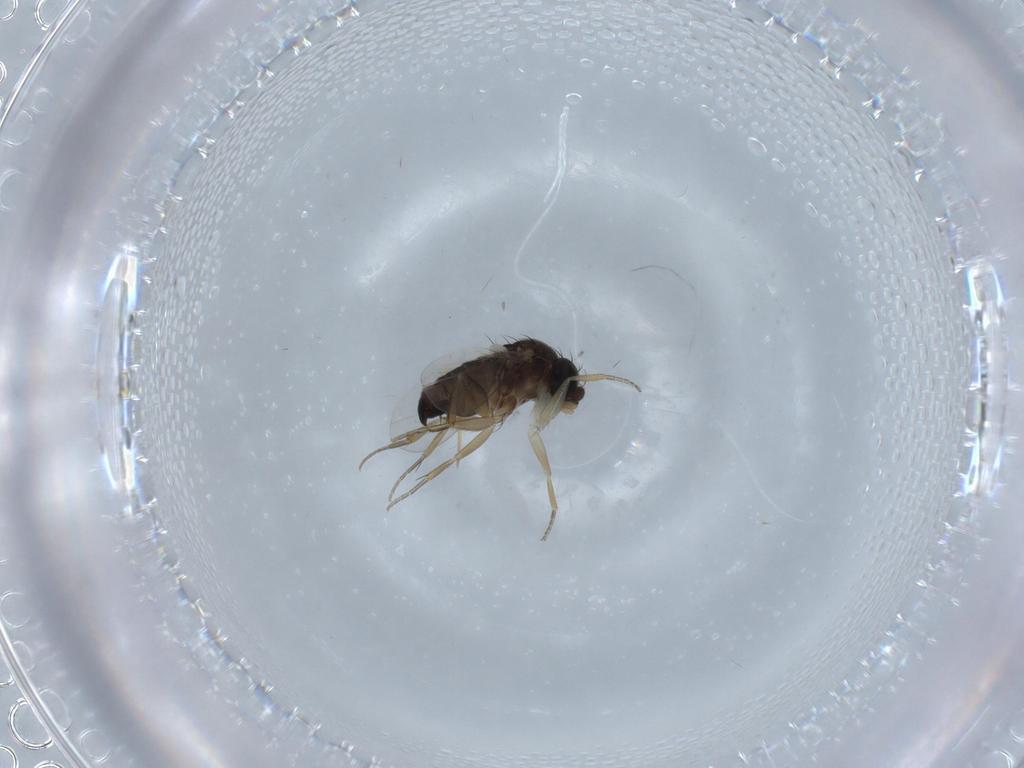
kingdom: Animalia
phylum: Arthropoda
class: Insecta
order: Diptera
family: Phoridae
